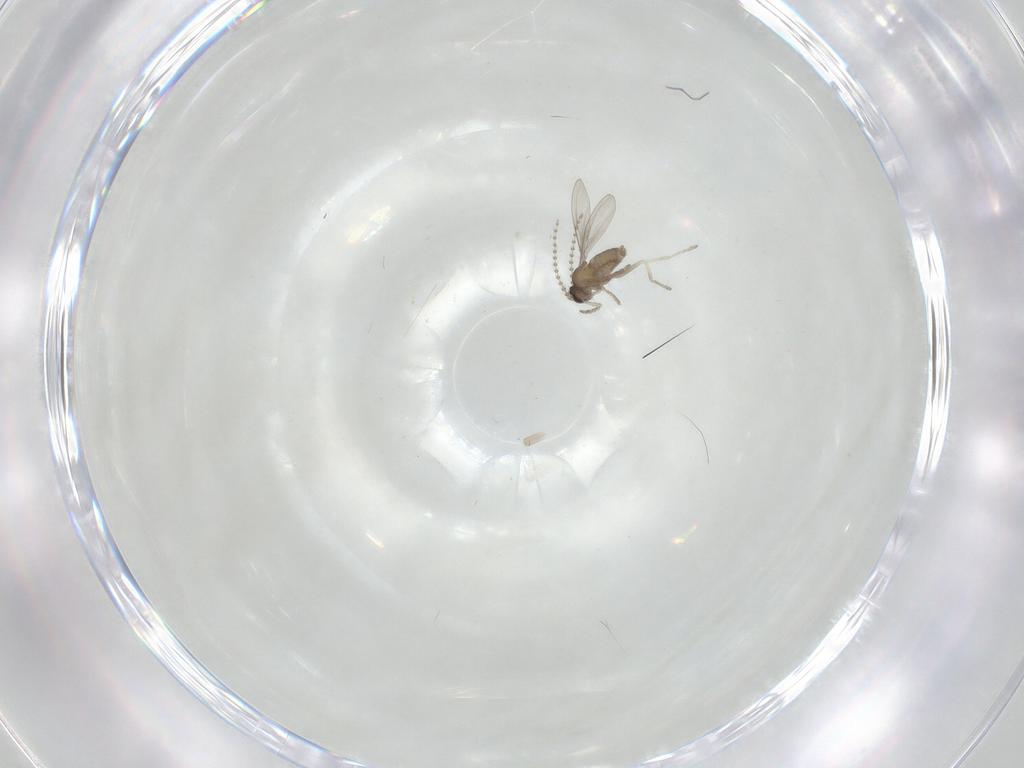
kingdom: Animalia
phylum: Arthropoda
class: Insecta
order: Diptera
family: Cecidomyiidae
